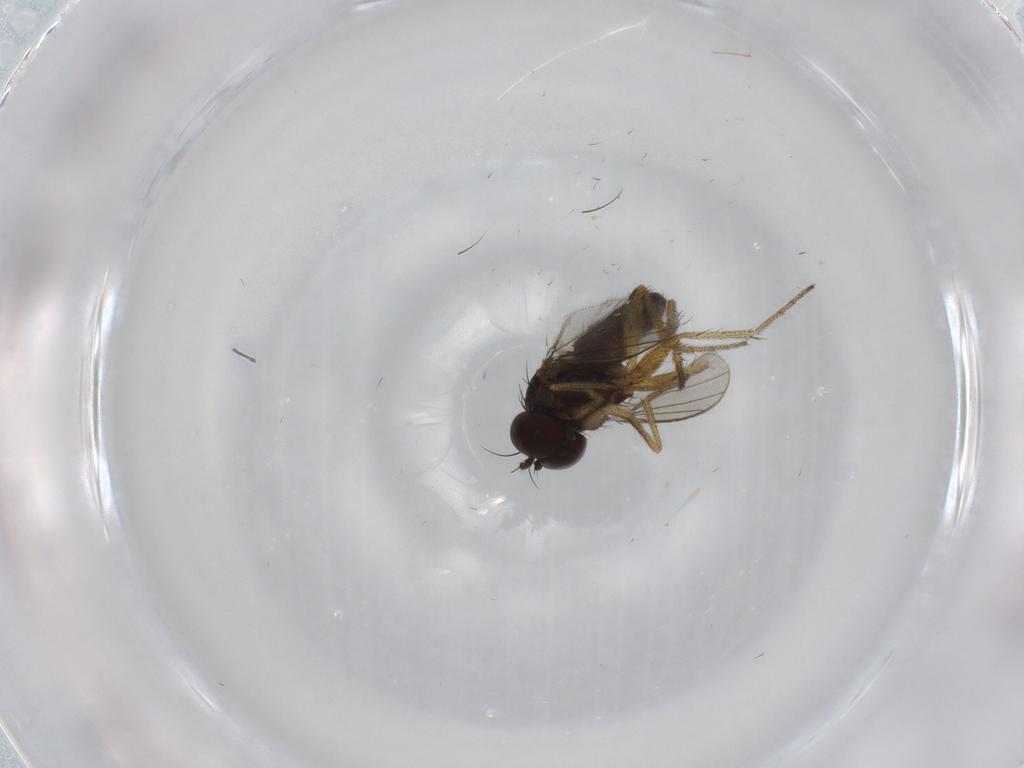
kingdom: Animalia
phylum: Arthropoda
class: Insecta
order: Diptera
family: Dolichopodidae
